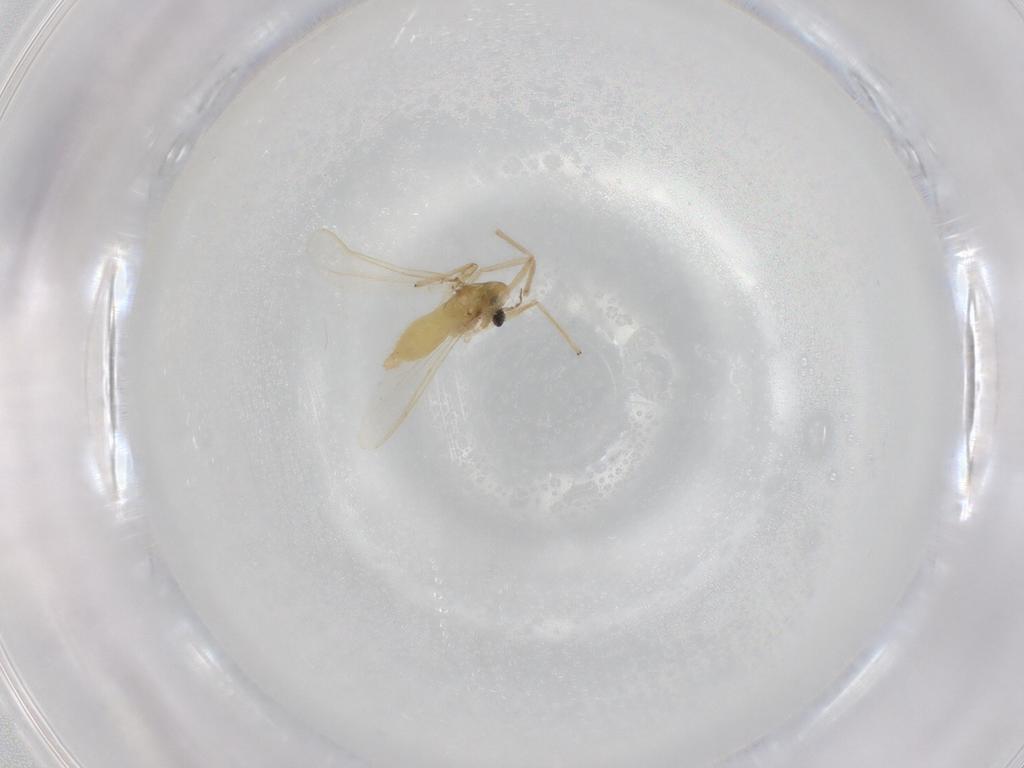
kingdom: Animalia
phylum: Arthropoda
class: Insecta
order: Diptera
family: Chironomidae
